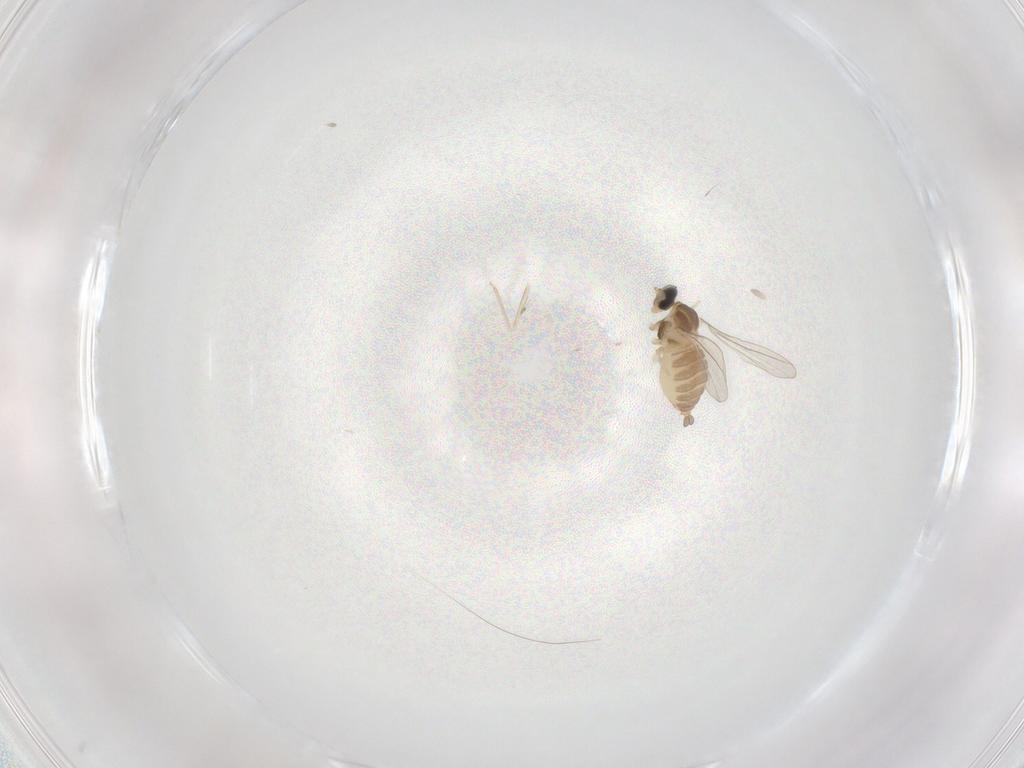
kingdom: Animalia
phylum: Arthropoda
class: Insecta
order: Diptera
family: Cecidomyiidae
